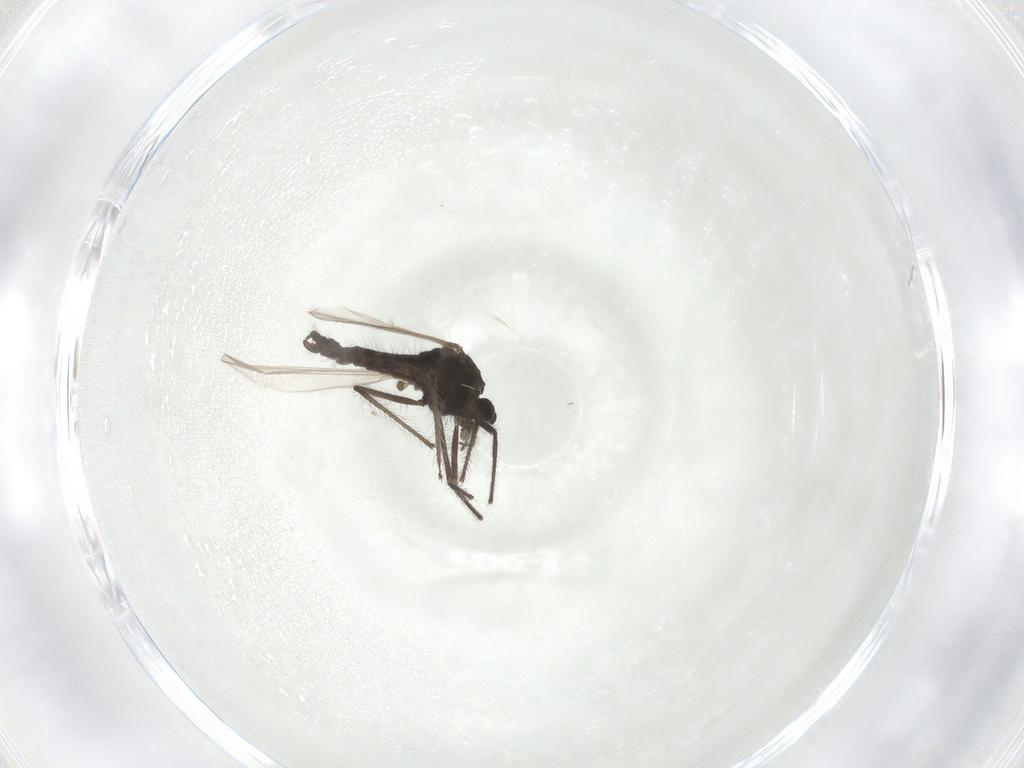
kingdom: Animalia
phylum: Arthropoda
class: Insecta
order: Diptera
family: Chironomidae
